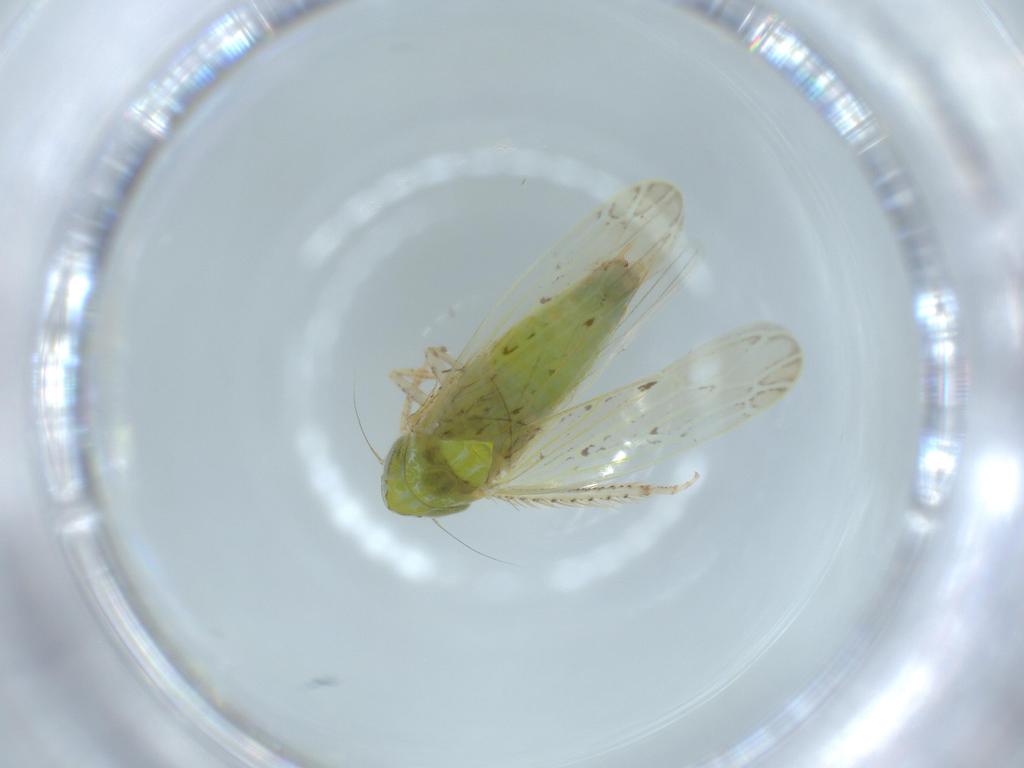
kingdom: Animalia
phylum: Arthropoda
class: Insecta
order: Hemiptera
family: Cicadellidae
